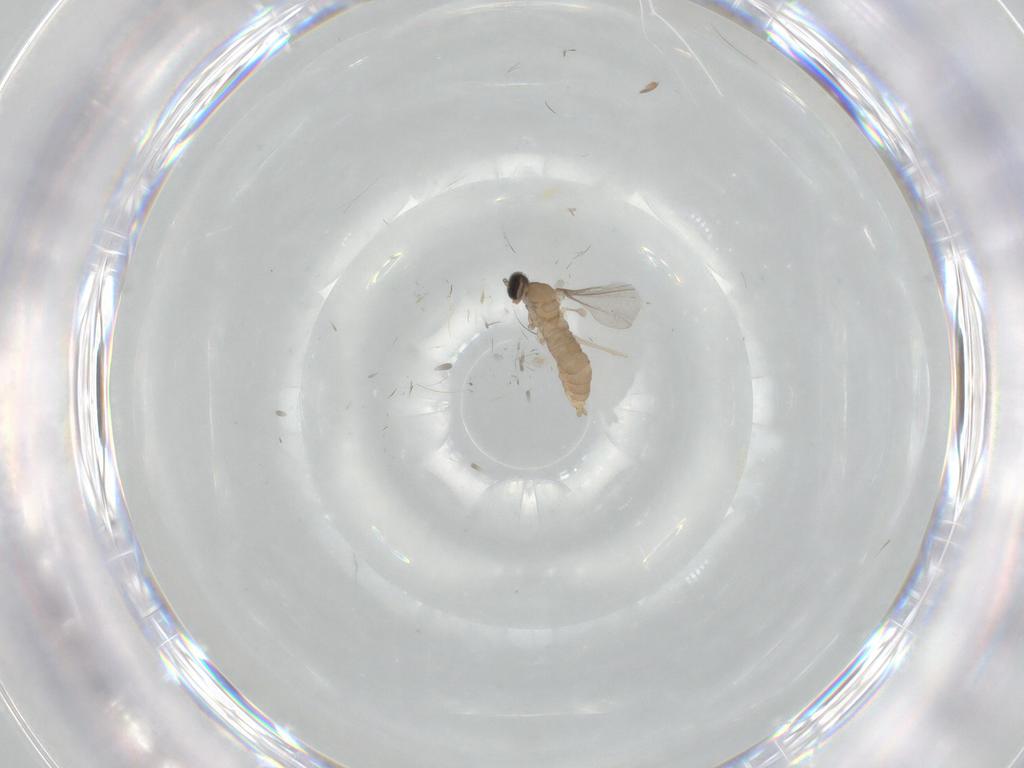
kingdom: Animalia
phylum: Arthropoda
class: Insecta
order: Diptera
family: Cecidomyiidae
